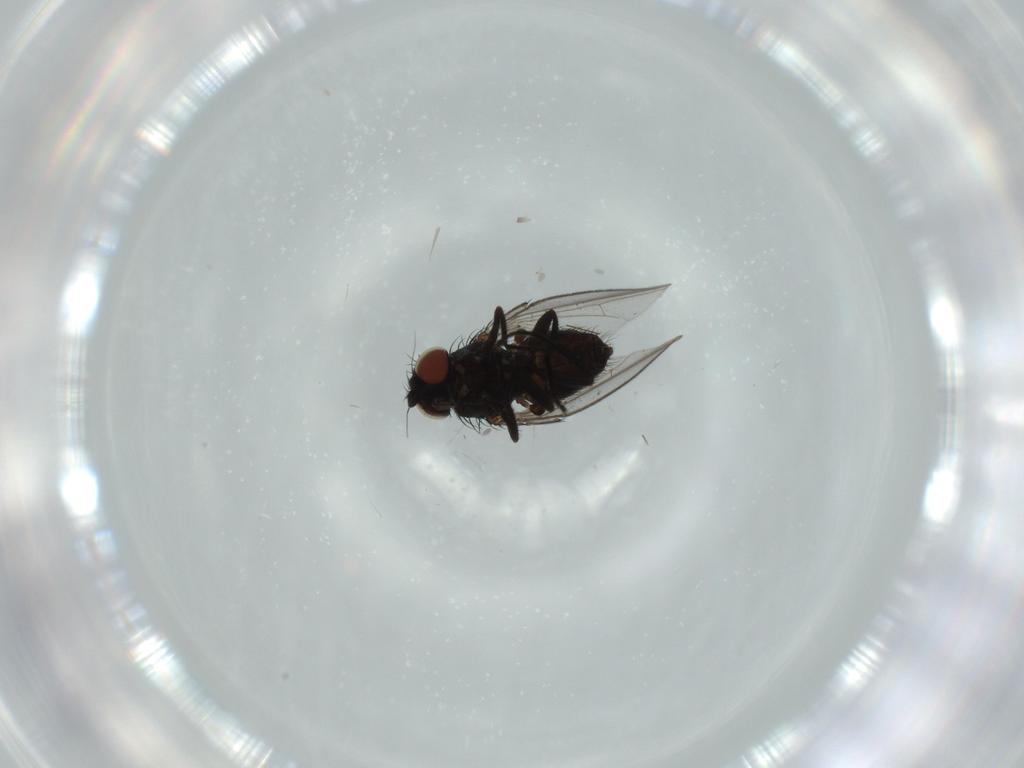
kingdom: Animalia
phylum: Arthropoda
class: Insecta
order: Diptera
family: Milichiidae
